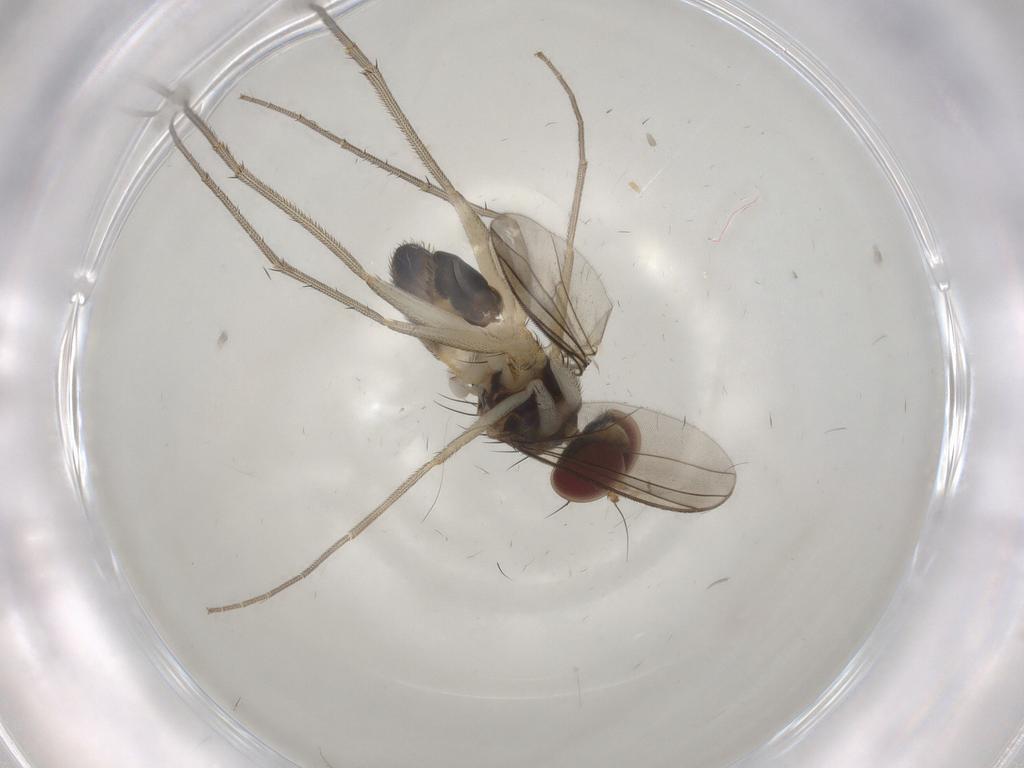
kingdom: Animalia
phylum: Arthropoda
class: Insecta
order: Diptera
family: Dolichopodidae
